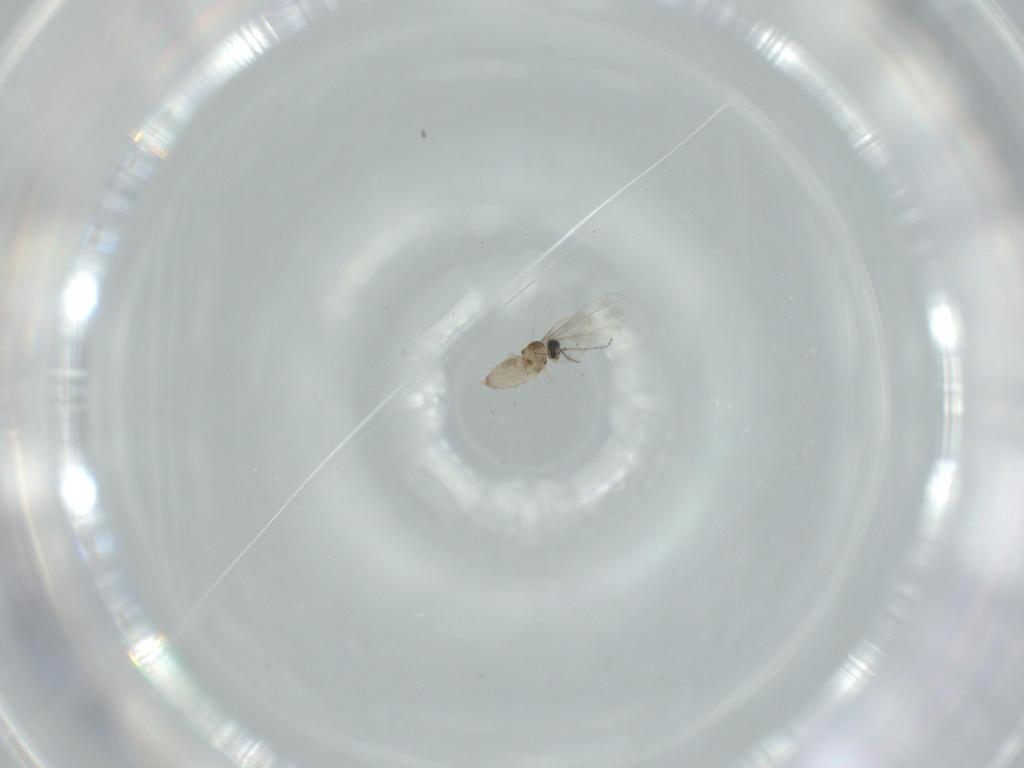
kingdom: Animalia
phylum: Arthropoda
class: Insecta
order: Diptera
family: Cecidomyiidae
